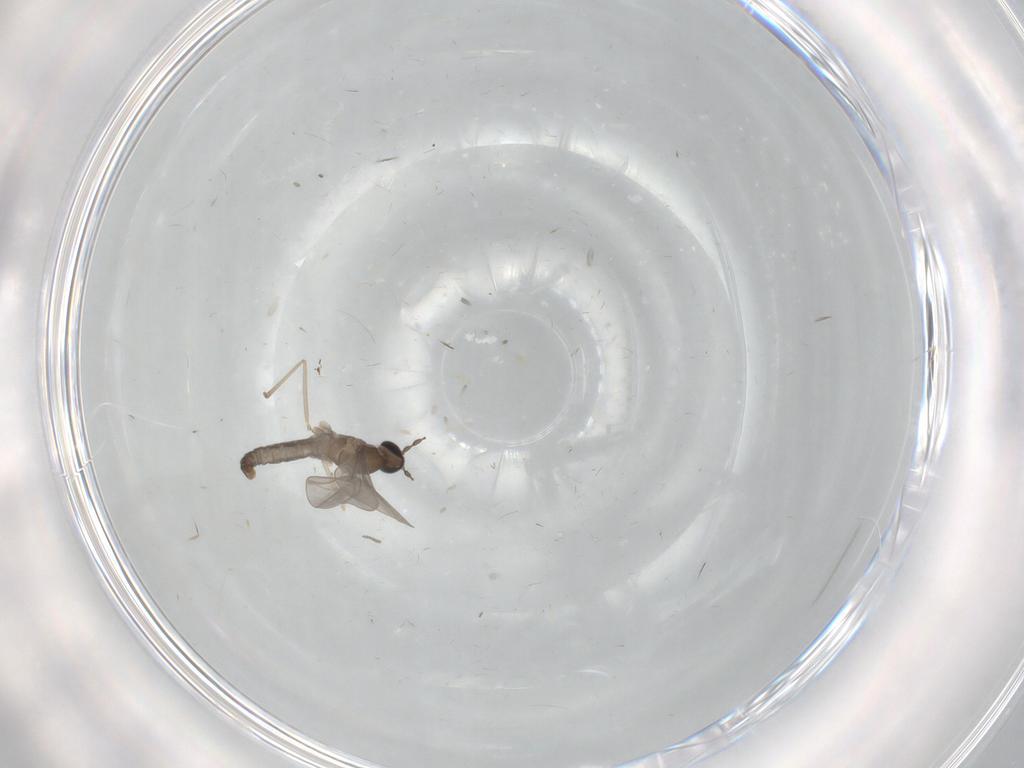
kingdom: Animalia
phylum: Arthropoda
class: Insecta
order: Diptera
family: Cecidomyiidae
